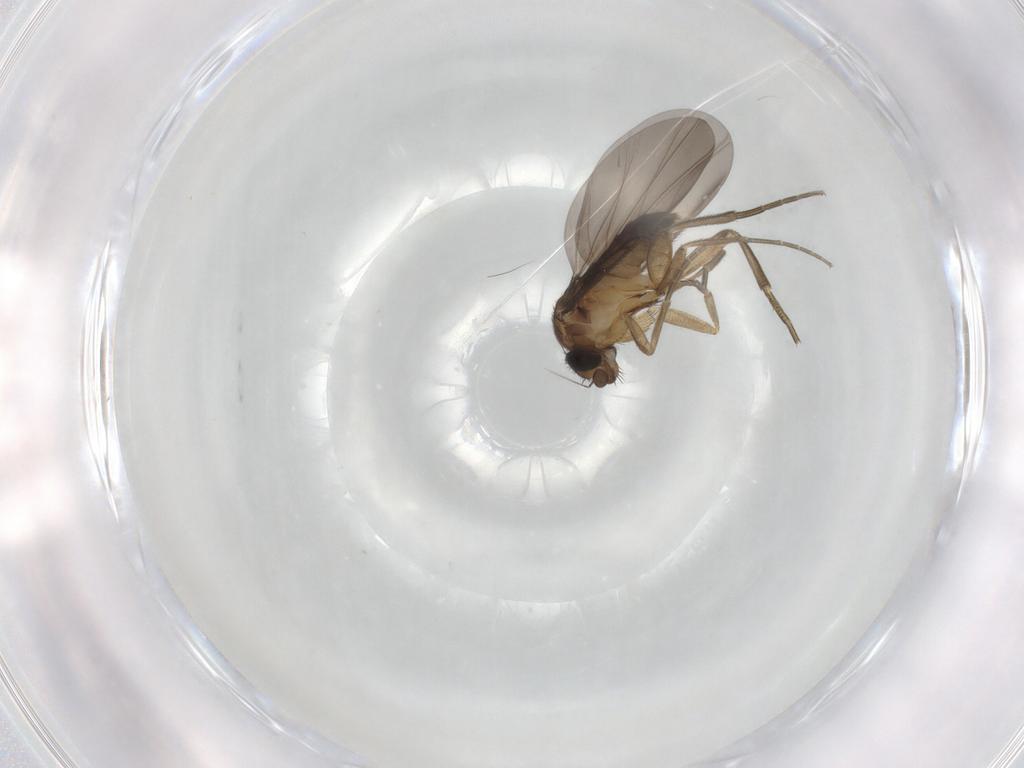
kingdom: Animalia
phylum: Arthropoda
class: Insecta
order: Diptera
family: Phoridae
